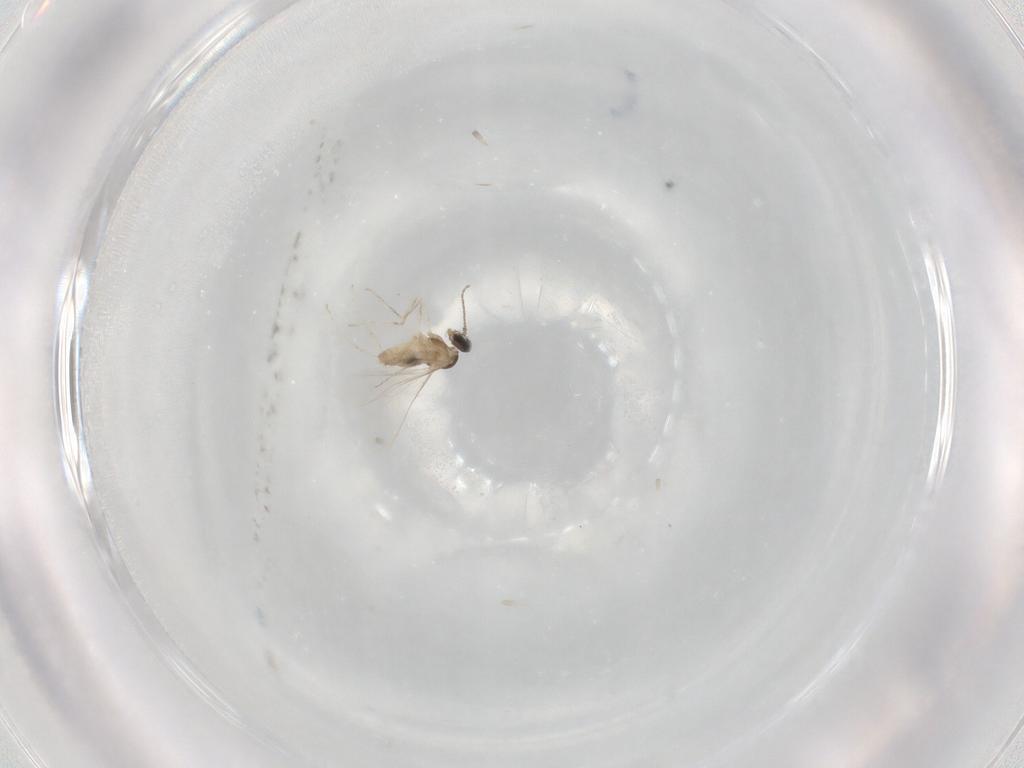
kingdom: Animalia
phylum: Arthropoda
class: Insecta
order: Diptera
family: Cecidomyiidae
